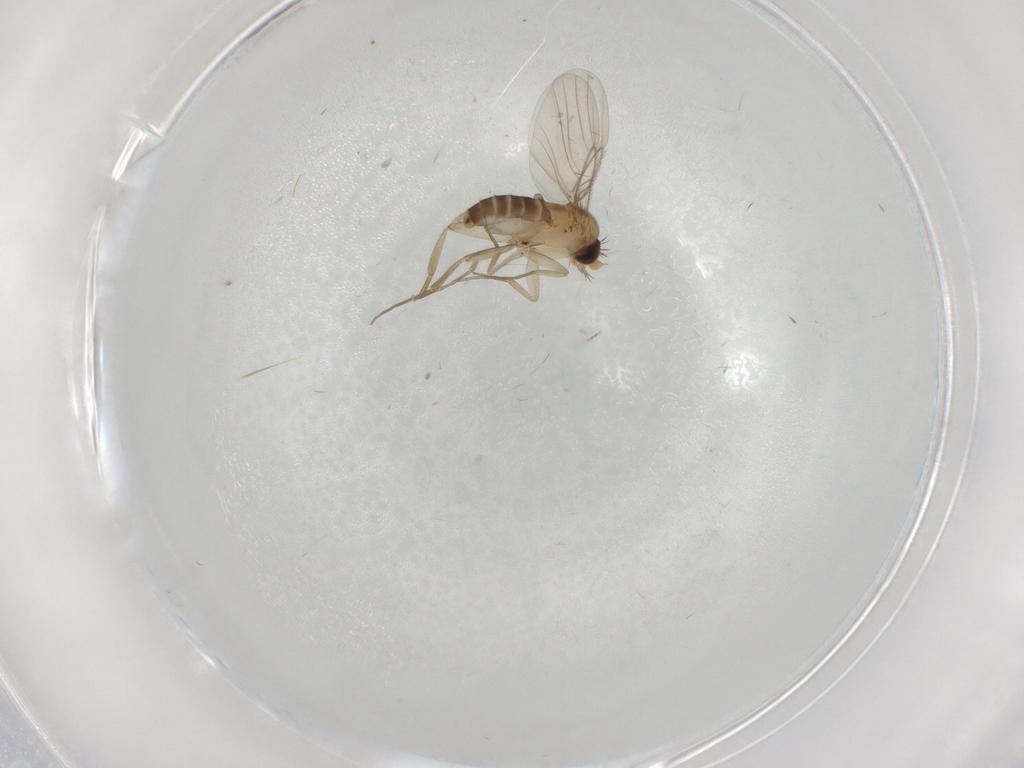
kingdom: Animalia
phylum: Arthropoda
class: Insecta
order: Diptera
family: Phoridae
